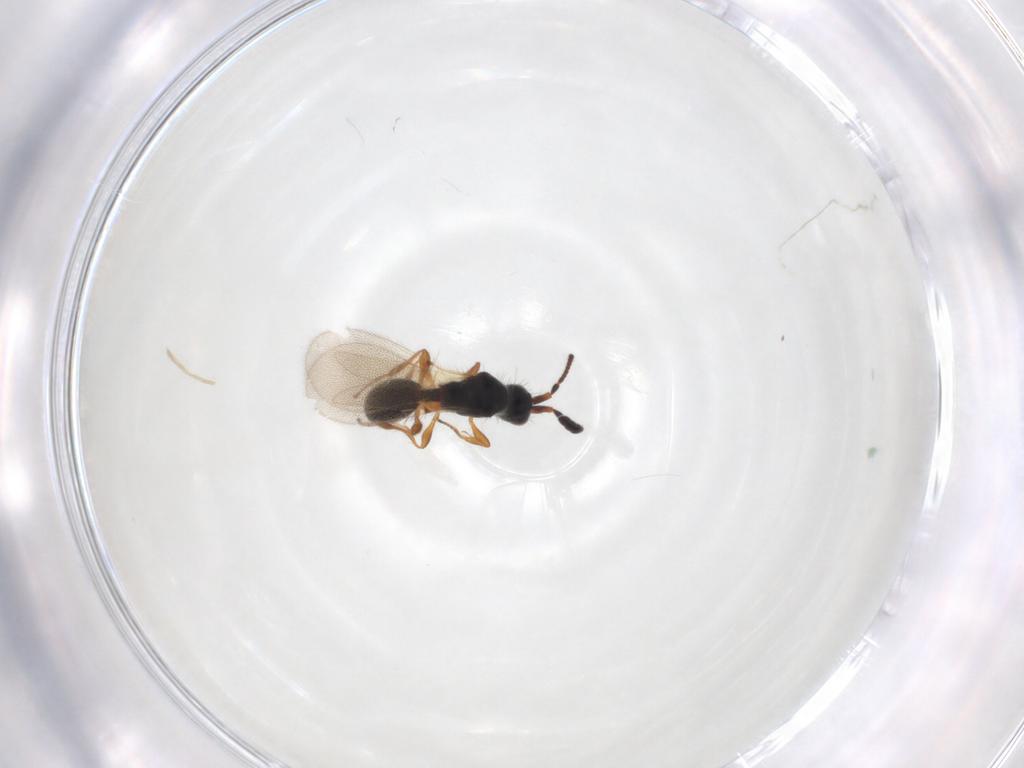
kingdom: Animalia
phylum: Arthropoda
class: Insecta
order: Hymenoptera
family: Diapriidae
